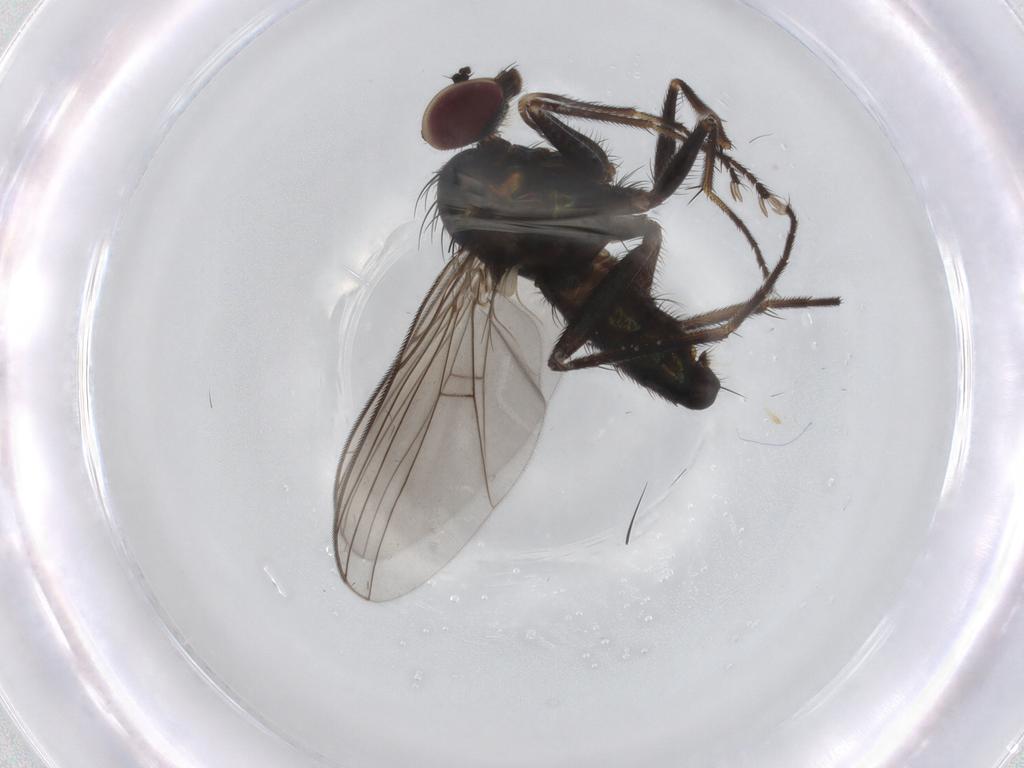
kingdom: Animalia
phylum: Arthropoda
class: Insecta
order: Diptera
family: Dolichopodidae
